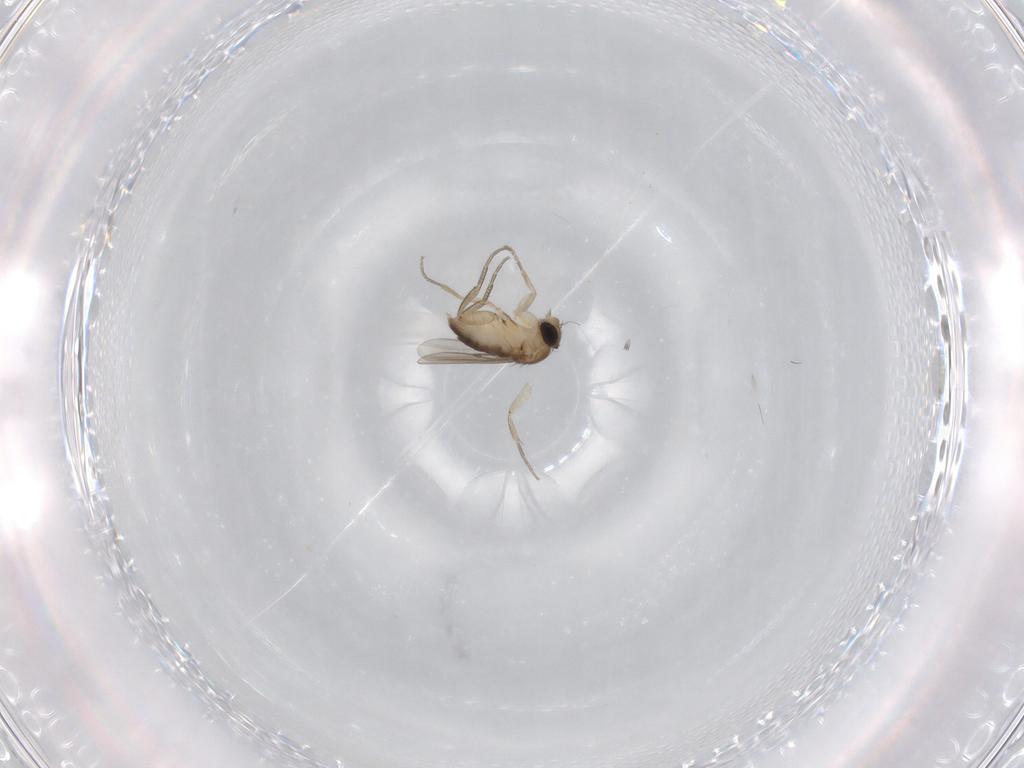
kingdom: Animalia
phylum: Arthropoda
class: Insecta
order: Diptera
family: Phoridae
